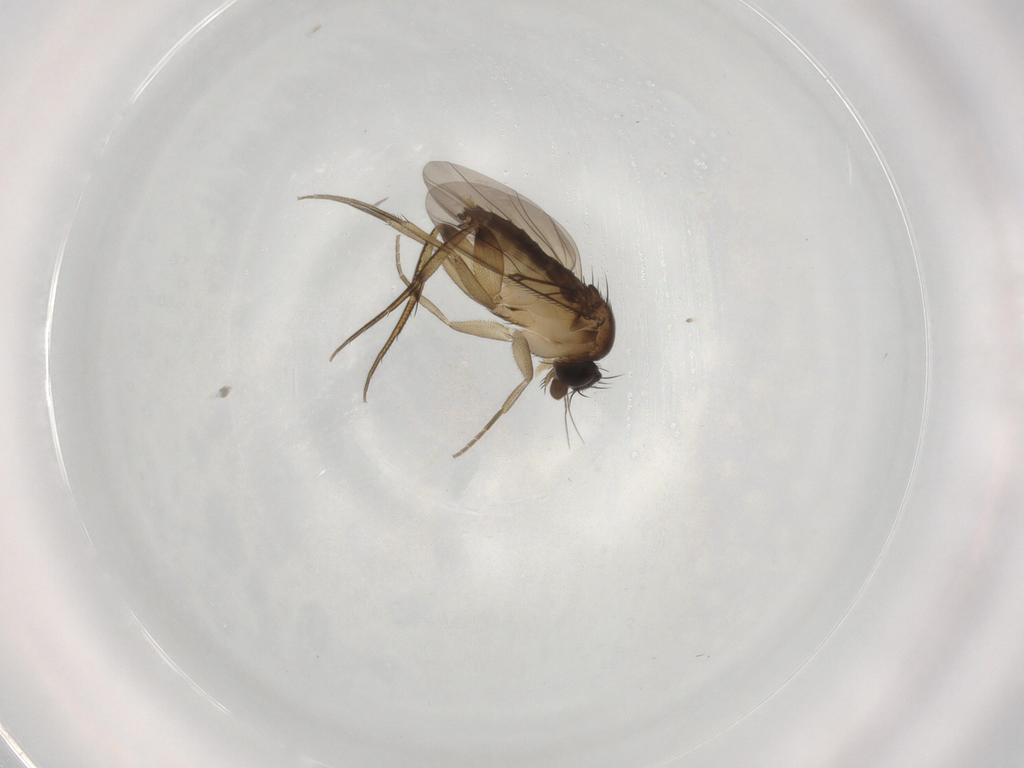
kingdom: Animalia
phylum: Arthropoda
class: Insecta
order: Diptera
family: Phoridae
